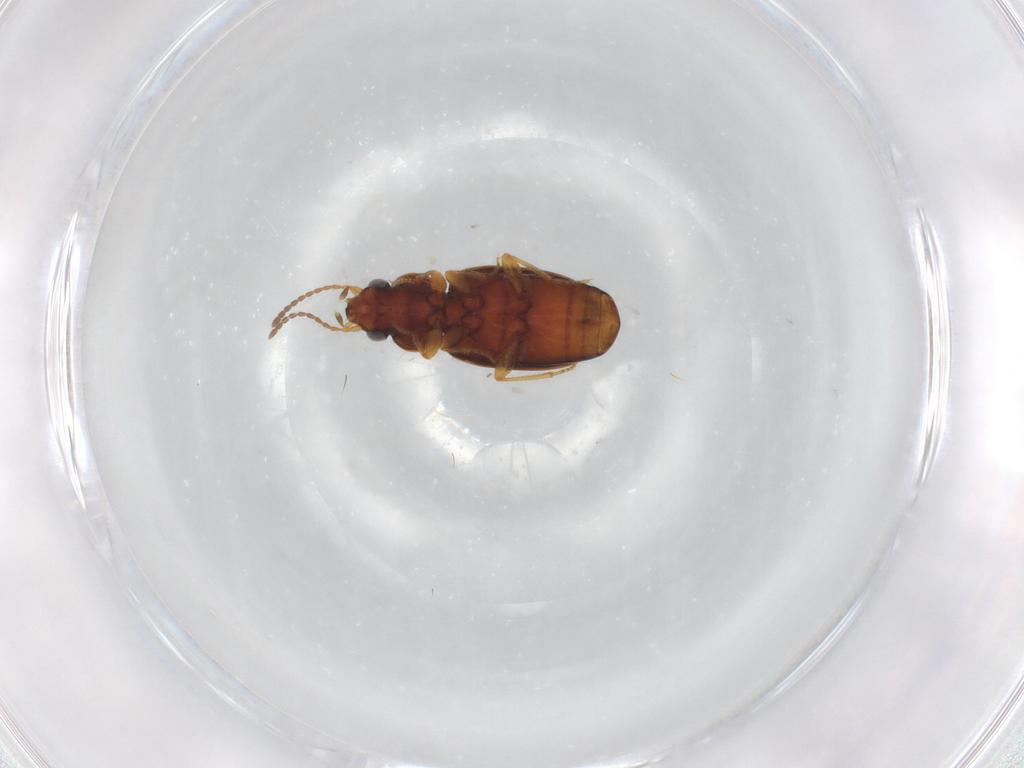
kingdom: Animalia
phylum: Arthropoda
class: Insecta
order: Coleoptera
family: Carabidae
